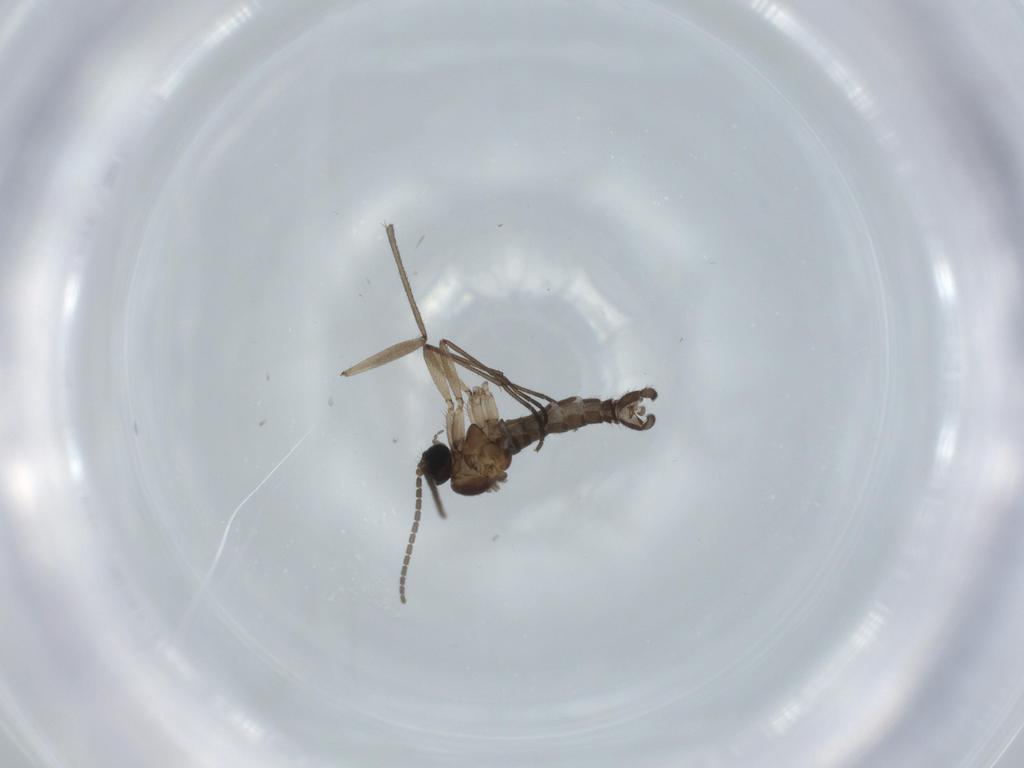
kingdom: Animalia
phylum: Arthropoda
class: Insecta
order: Diptera
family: Sciaridae
